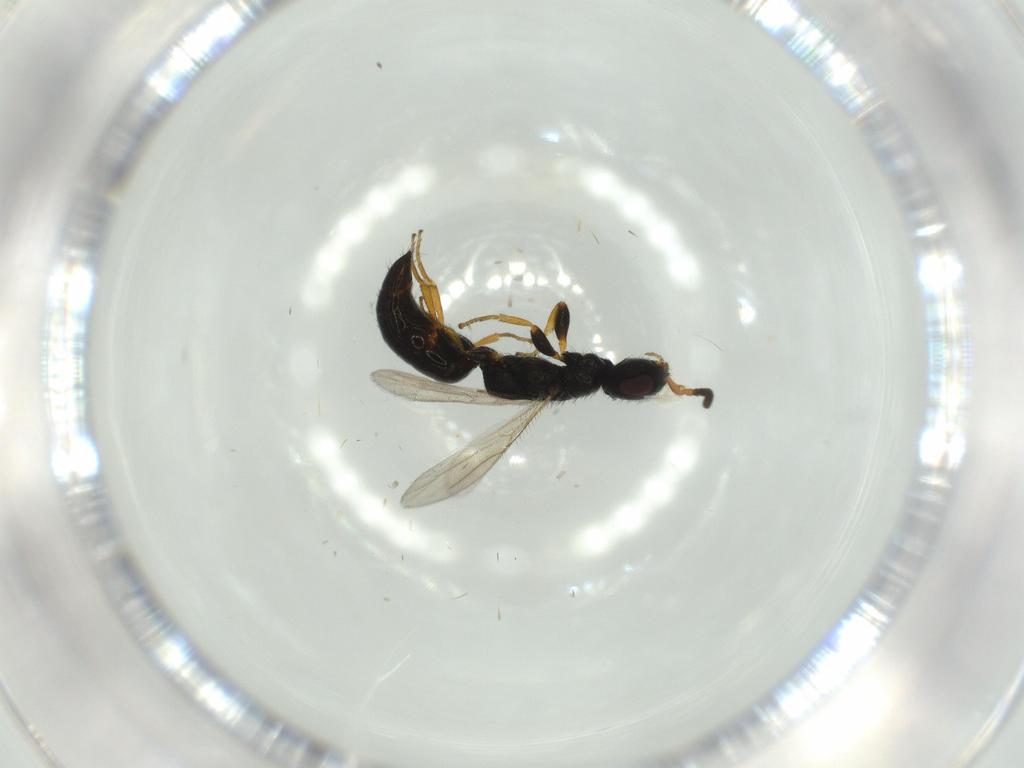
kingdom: Animalia
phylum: Arthropoda
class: Insecta
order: Hymenoptera
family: Bethylidae
